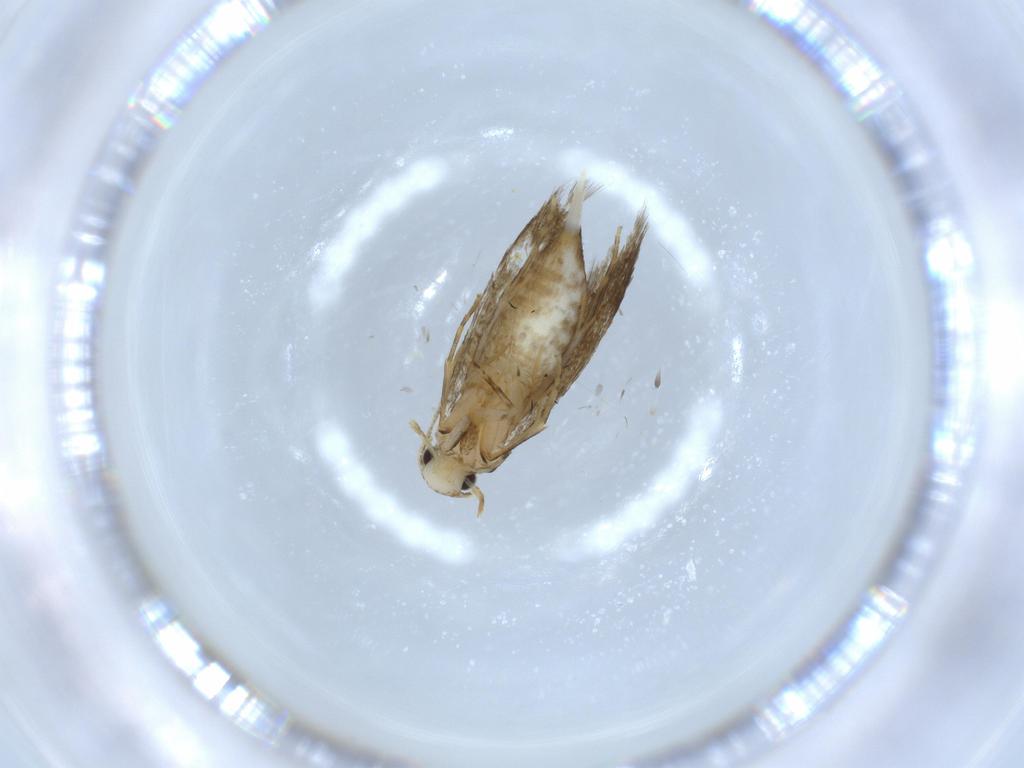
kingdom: Animalia
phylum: Arthropoda
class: Insecta
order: Lepidoptera
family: Tineidae
